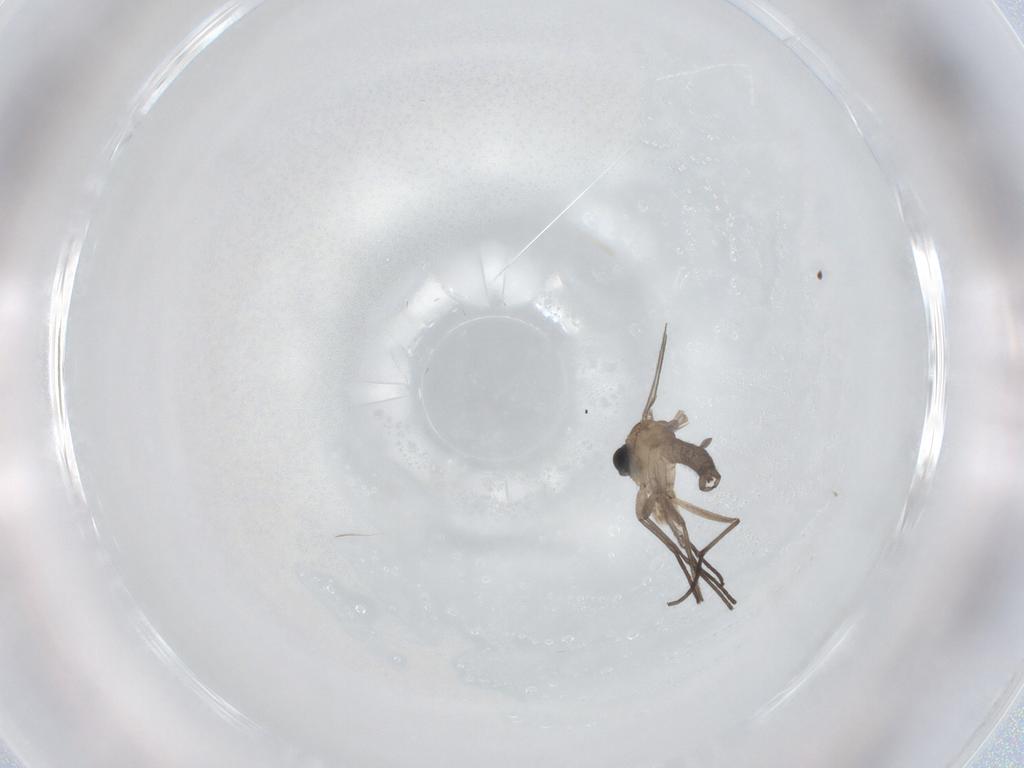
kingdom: Animalia
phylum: Arthropoda
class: Insecta
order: Diptera
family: Sciaridae
